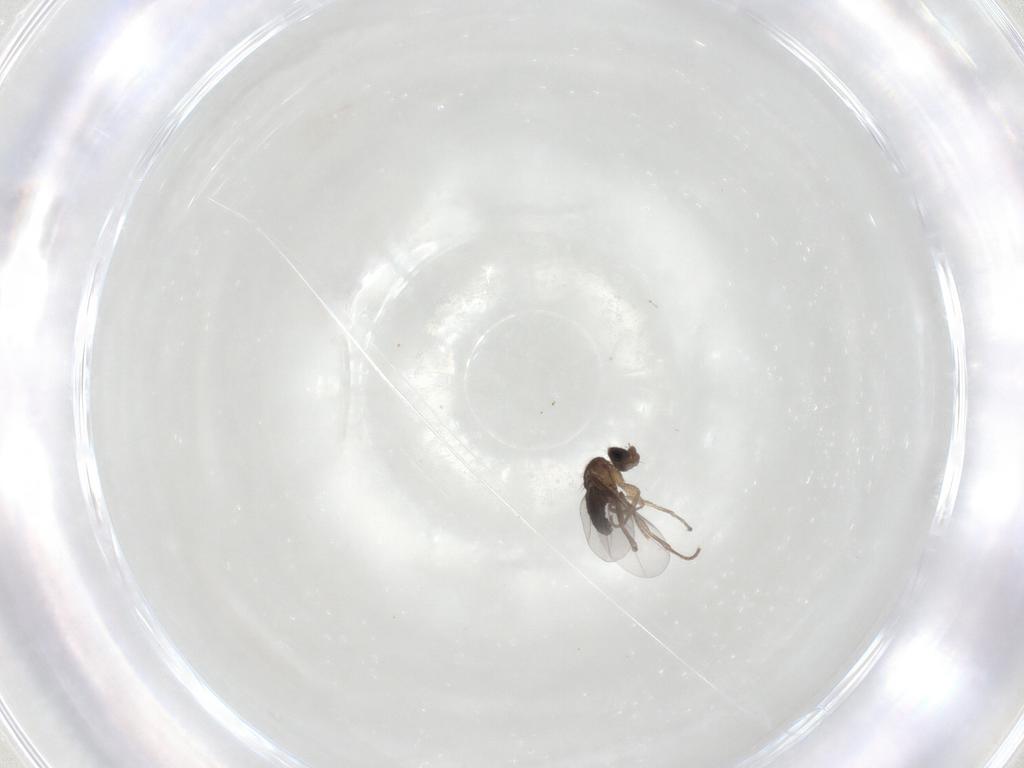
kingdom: Animalia
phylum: Arthropoda
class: Insecta
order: Diptera
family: Phoridae
